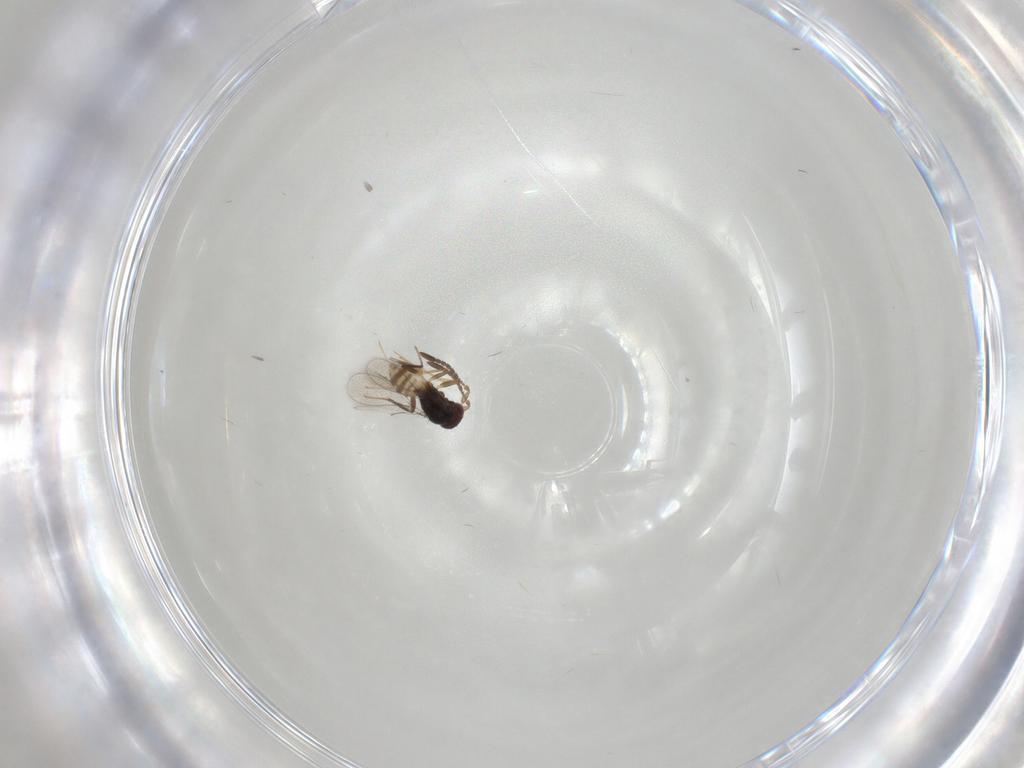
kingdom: Animalia
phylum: Arthropoda
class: Insecta
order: Hymenoptera
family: Mymaridae
